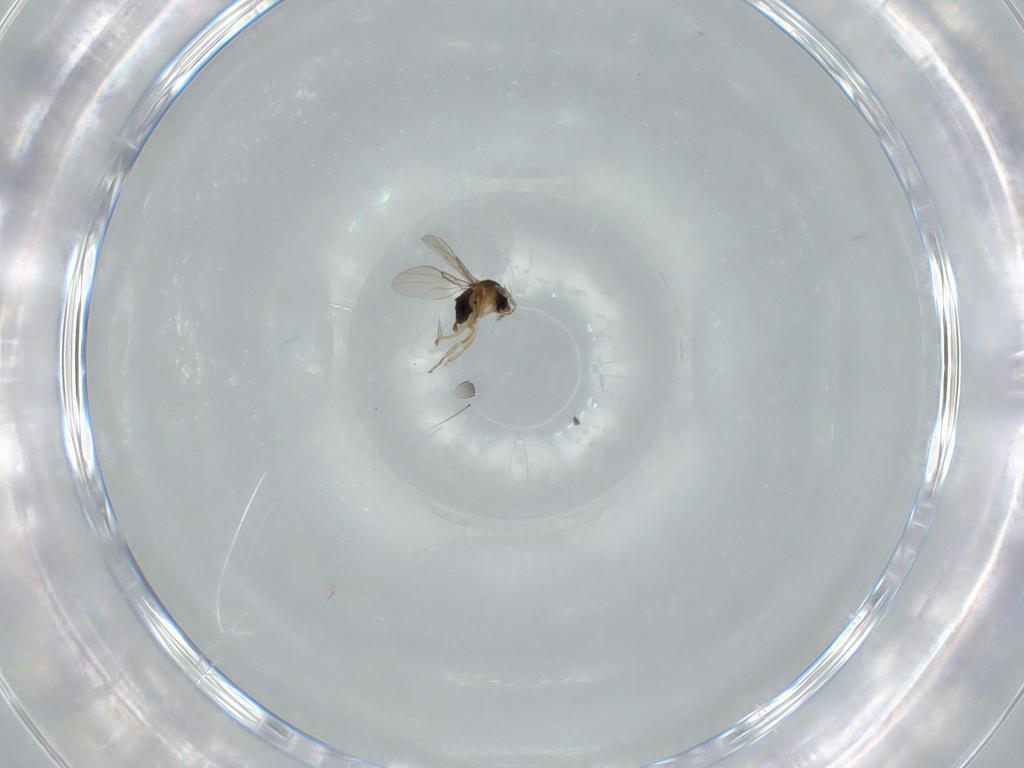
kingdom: Animalia
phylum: Arthropoda
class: Insecta
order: Diptera
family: Phoridae
